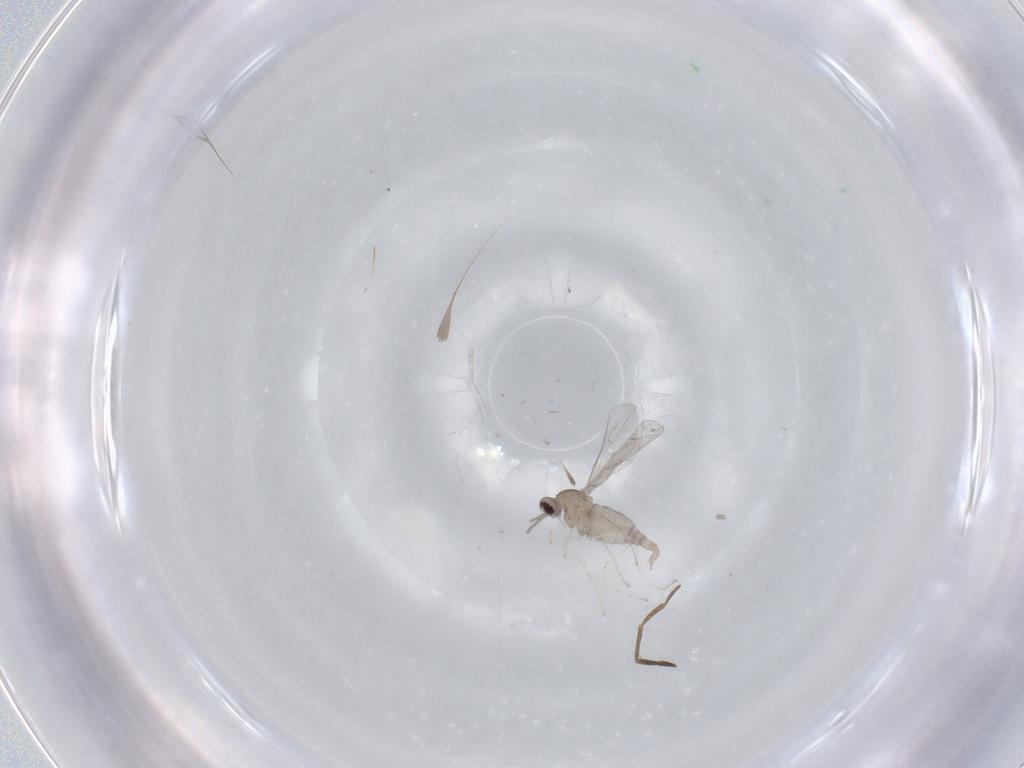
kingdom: Animalia
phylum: Arthropoda
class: Insecta
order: Diptera
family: Cecidomyiidae
